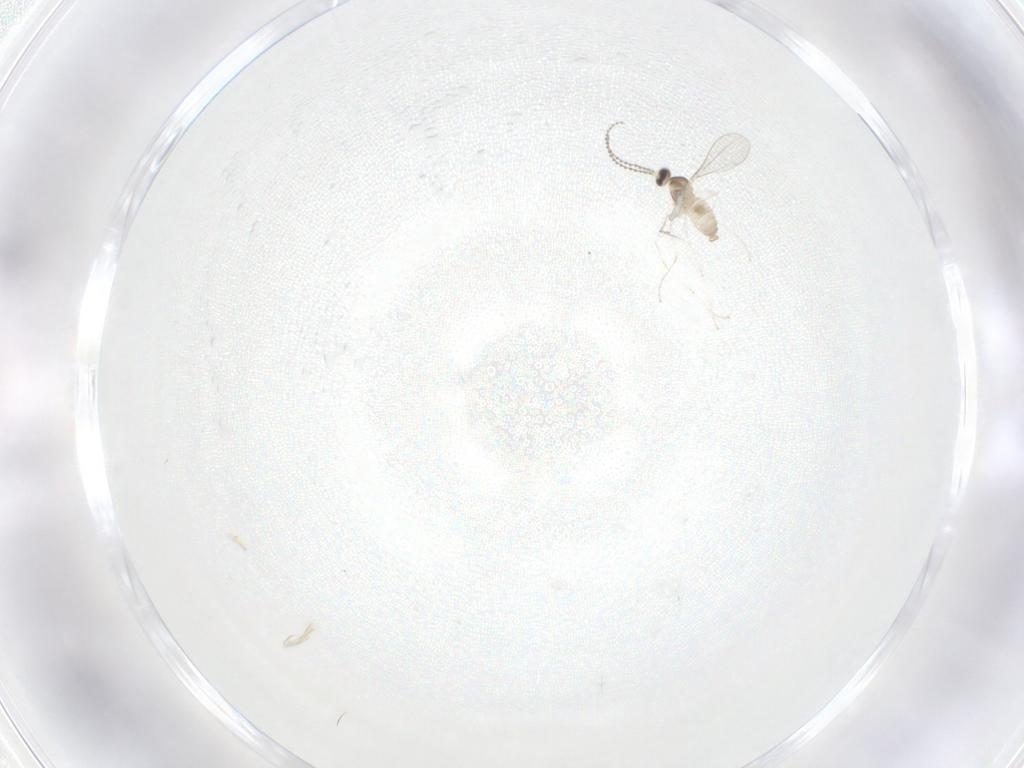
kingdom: Animalia
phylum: Arthropoda
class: Insecta
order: Diptera
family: Cecidomyiidae
